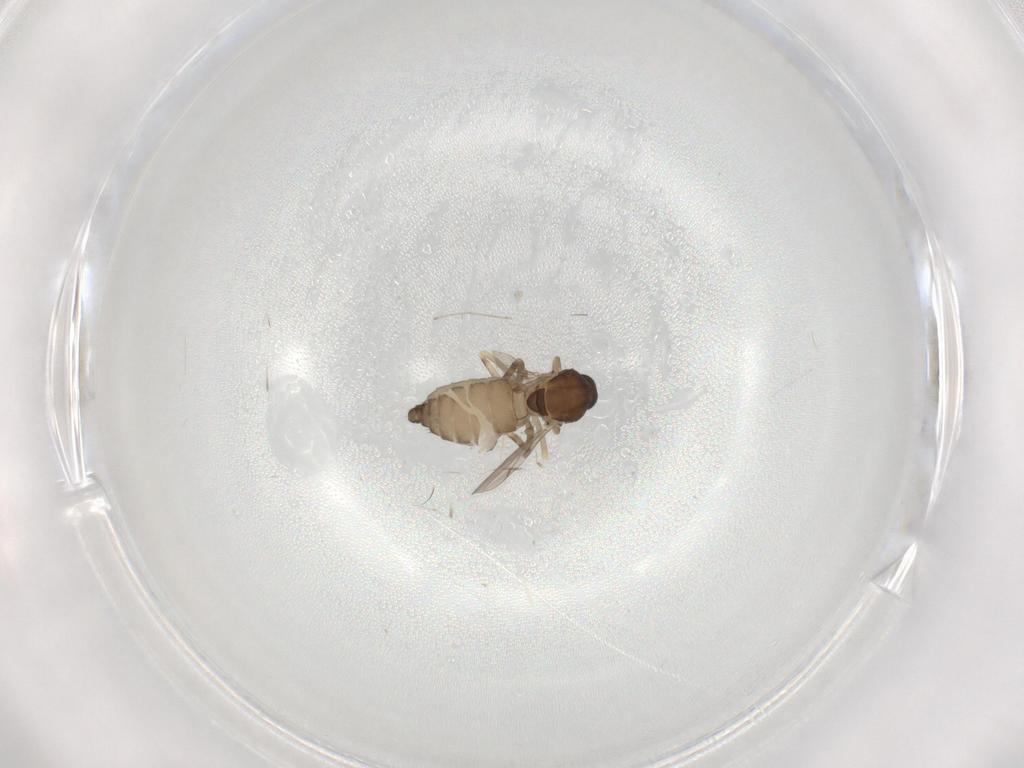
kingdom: Animalia
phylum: Arthropoda
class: Insecta
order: Diptera
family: Ceratopogonidae
